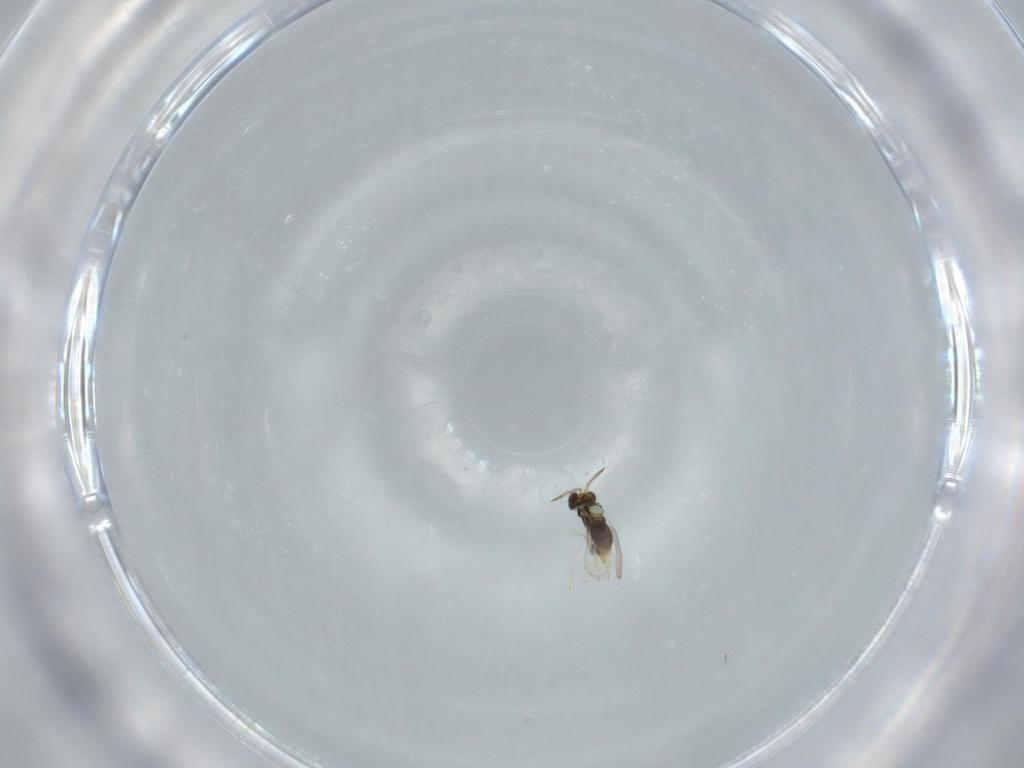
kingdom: Animalia
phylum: Arthropoda
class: Insecta
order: Hymenoptera
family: Aphelinidae
